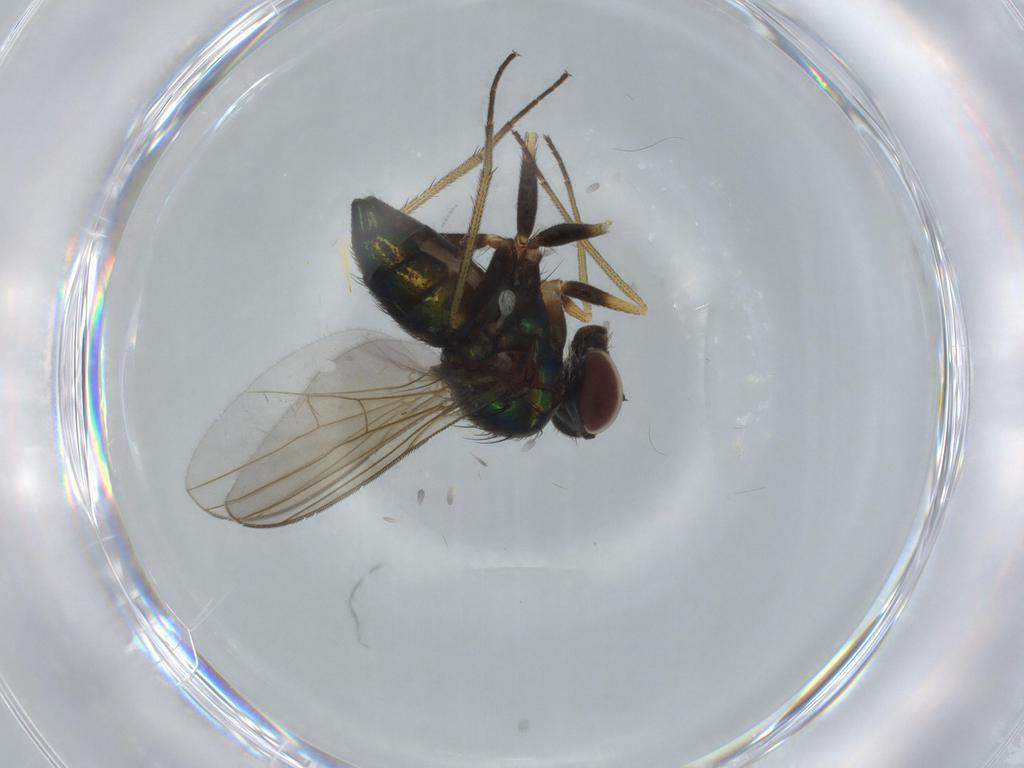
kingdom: Animalia
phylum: Arthropoda
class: Insecta
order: Diptera
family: Dolichopodidae
